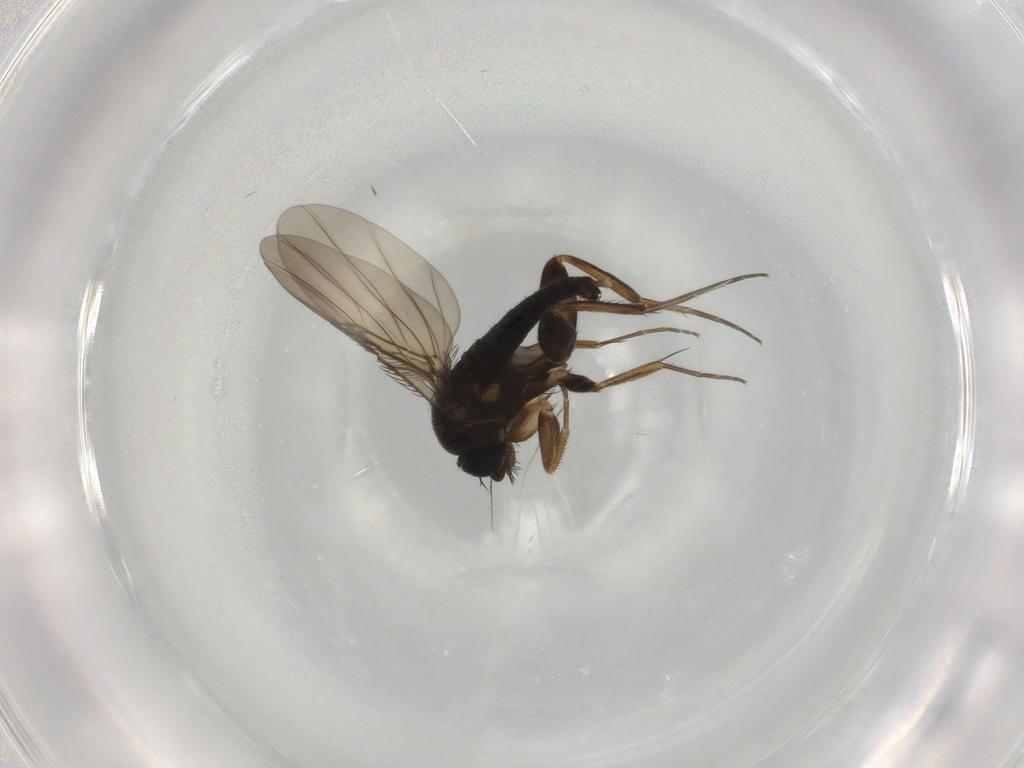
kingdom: Animalia
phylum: Arthropoda
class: Insecta
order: Diptera
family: Phoridae
